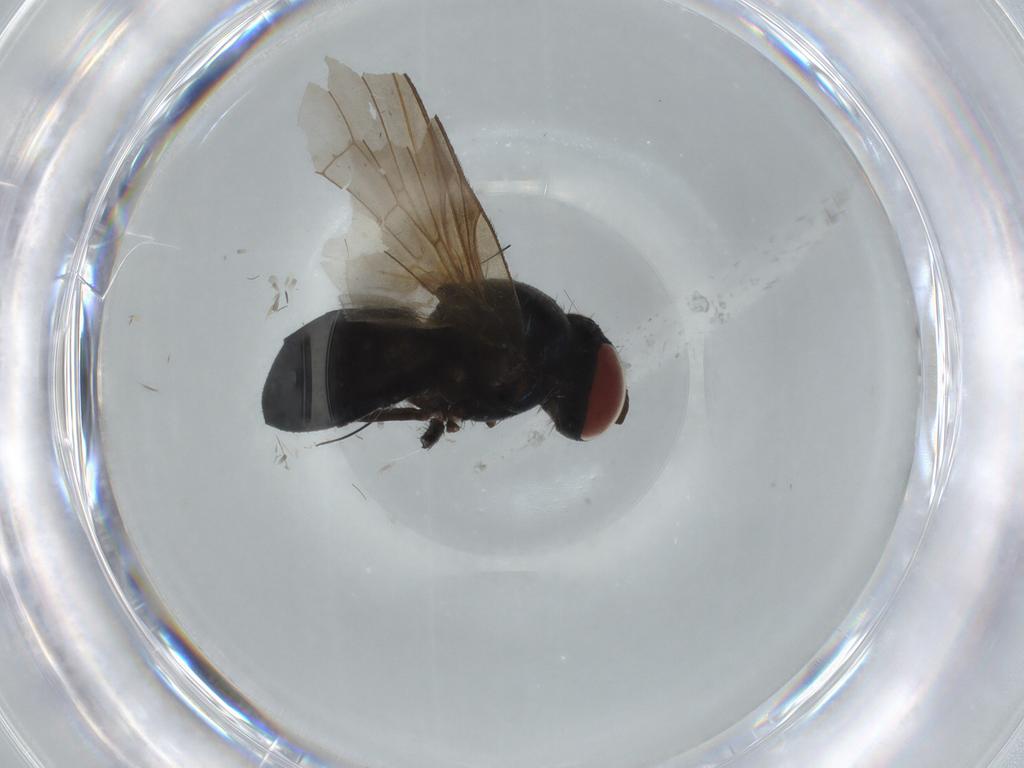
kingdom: Animalia
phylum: Arthropoda
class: Insecta
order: Diptera
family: Lonchaeidae
